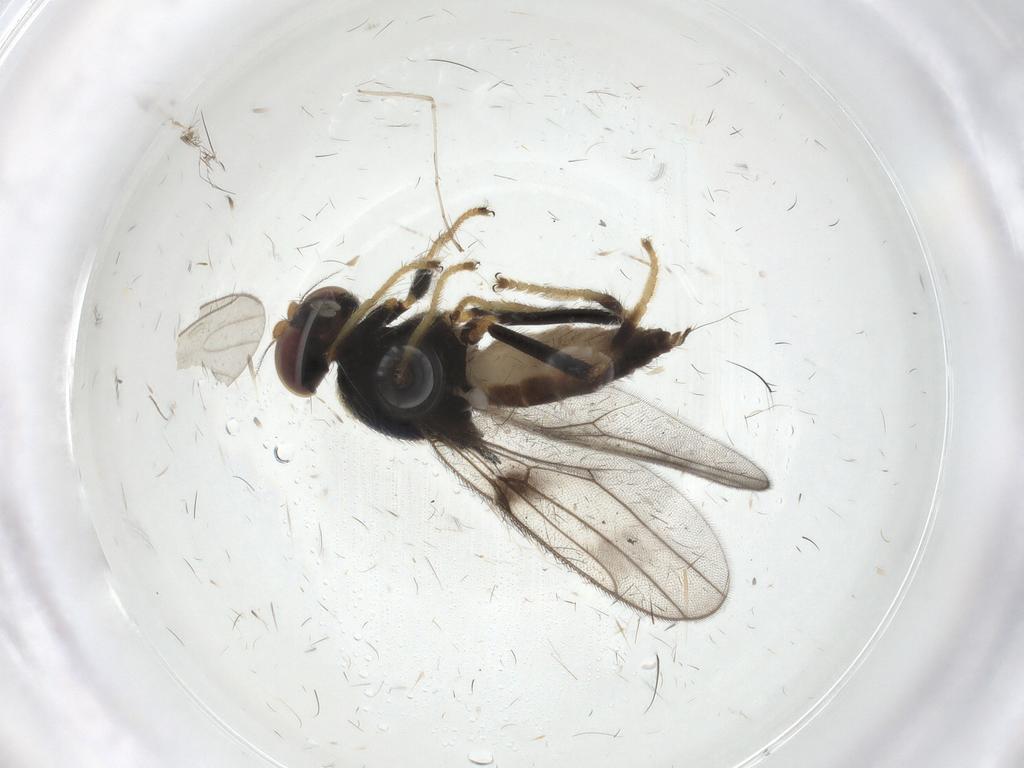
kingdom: Animalia
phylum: Arthropoda
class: Insecta
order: Diptera
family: Chloropidae
